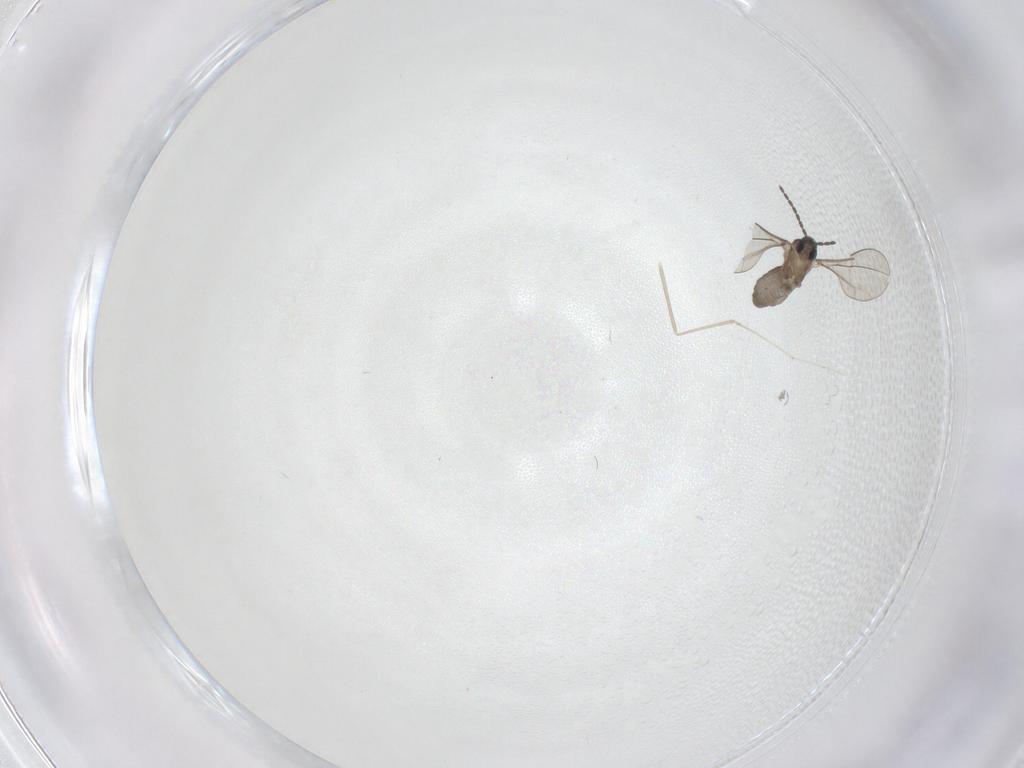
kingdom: Animalia
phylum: Arthropoda
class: Insecta
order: Diptera
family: Cecidomyiidae
